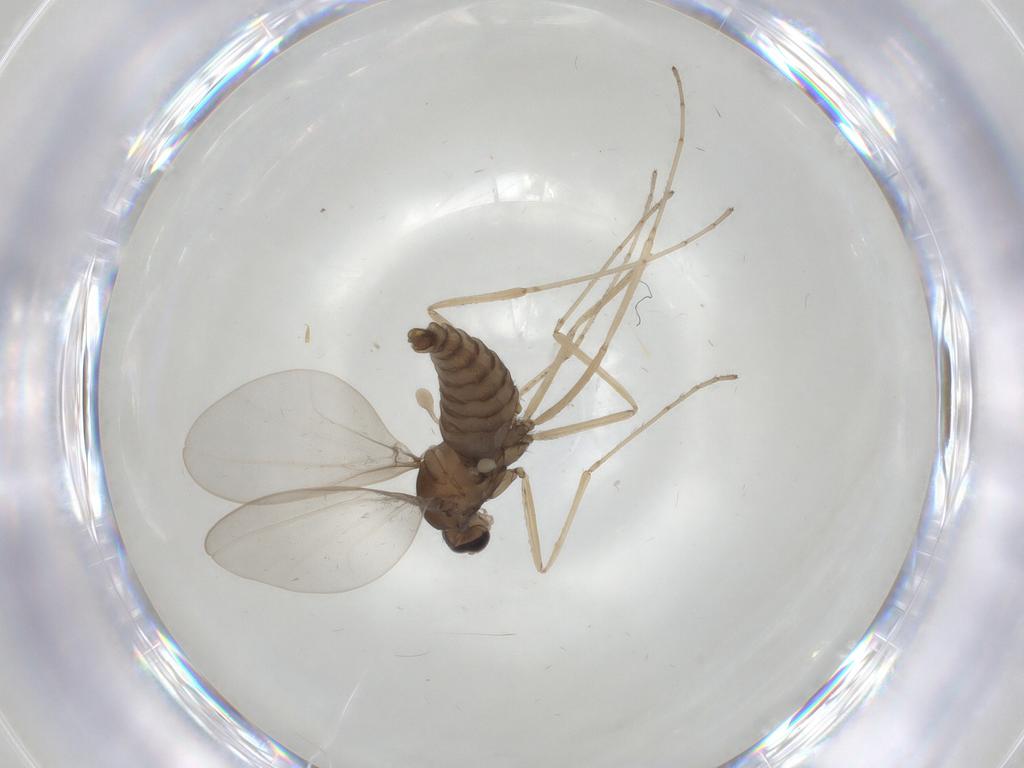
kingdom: Animalia
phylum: Arthropoda
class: Insecta
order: Diptera
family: Cecidomyiidae
